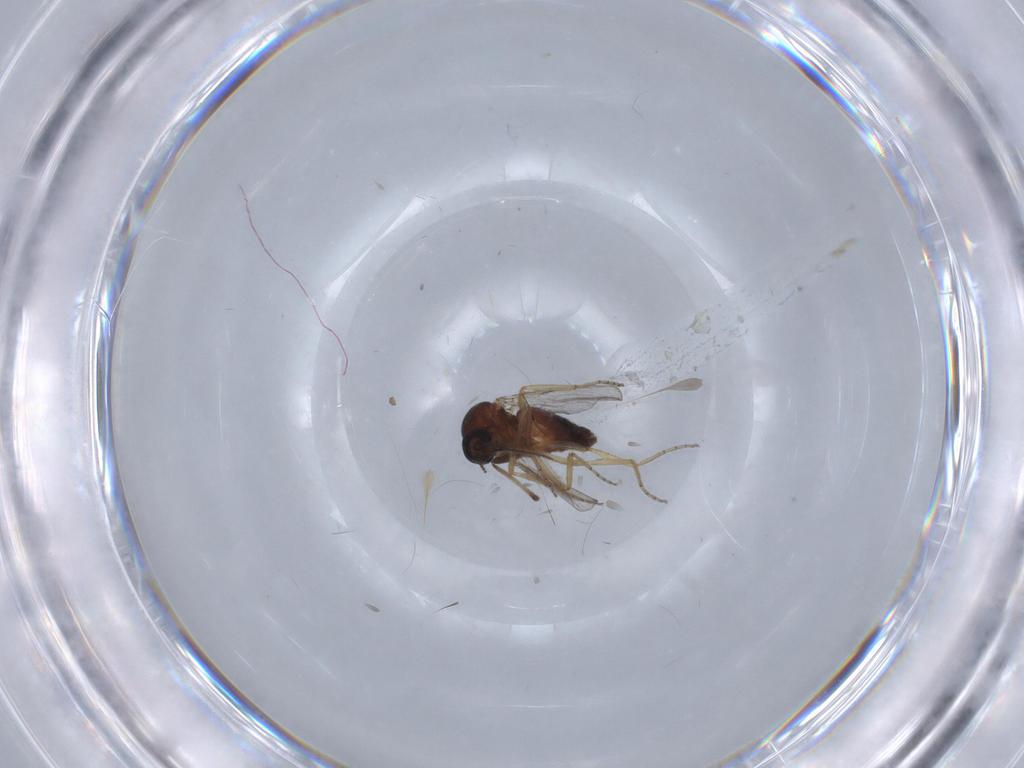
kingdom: Animalia
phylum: Arthropoda
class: Insecta
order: Diptera
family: Ceratopogonidae
